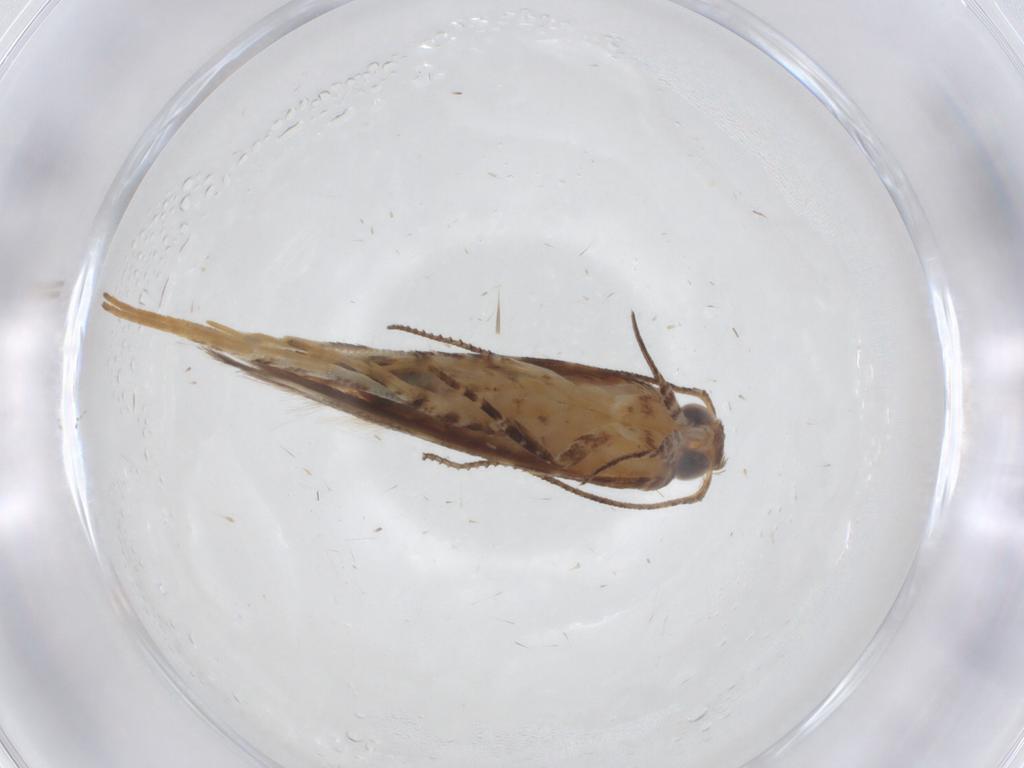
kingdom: Animalia
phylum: Arthropoda
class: Insecta
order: Lepidoptera
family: Gelechiidae
